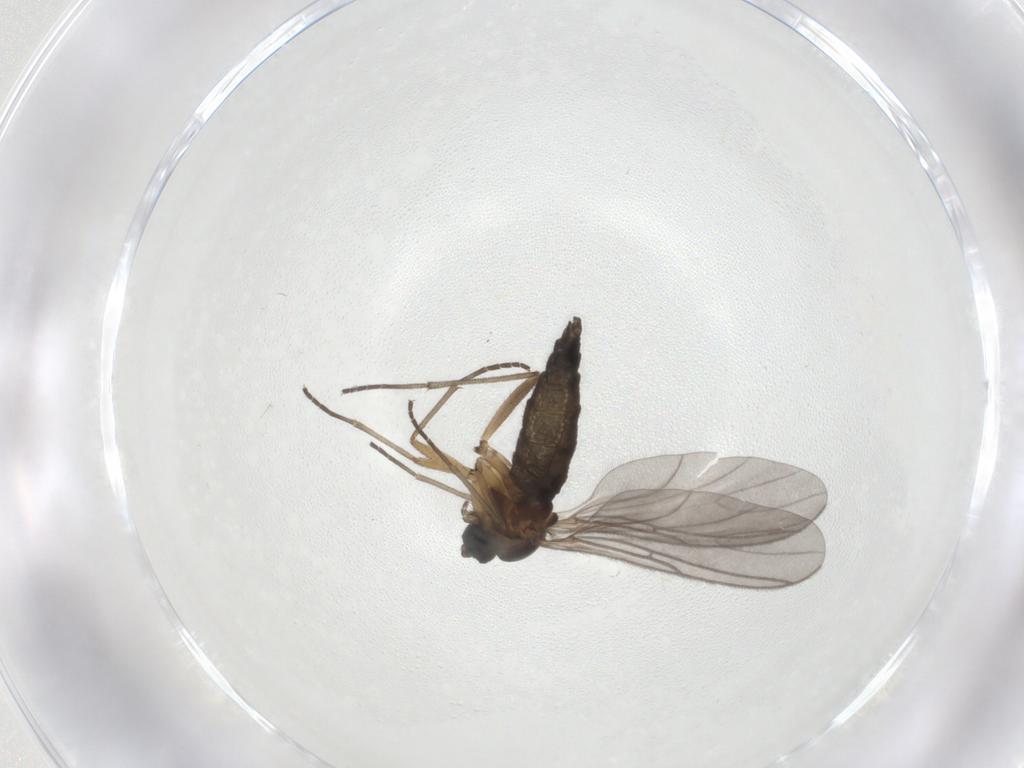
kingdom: Animalia
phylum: Arthropoda
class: Insecta
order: Diptera
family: Sciaridae
